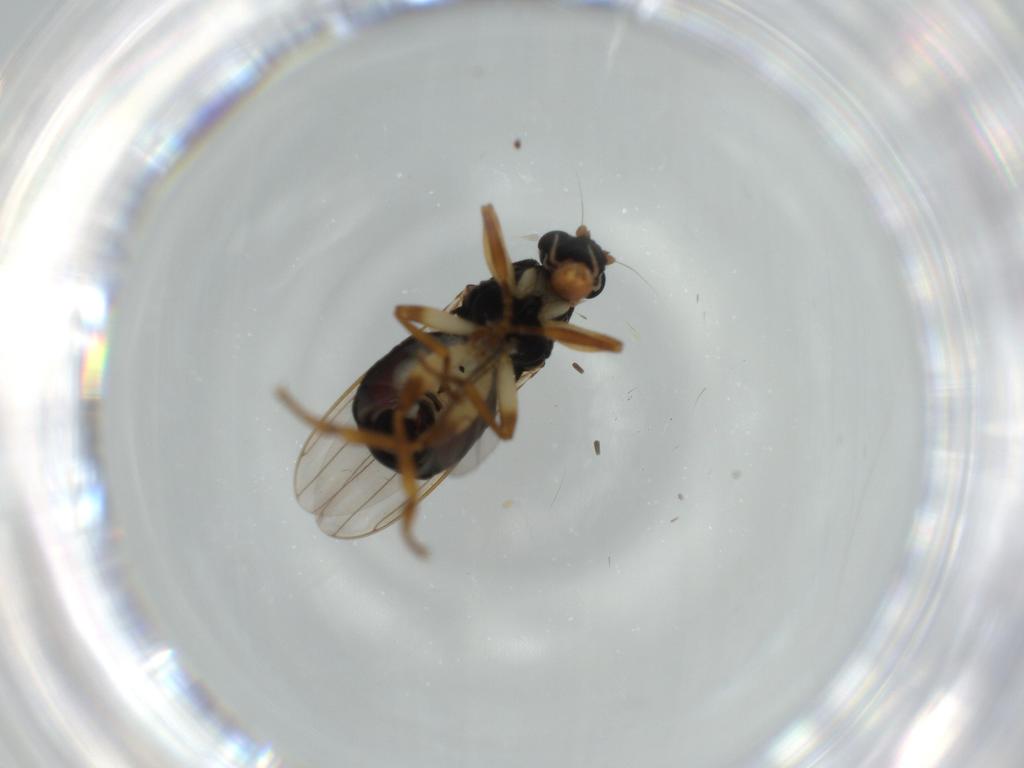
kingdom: Animalia
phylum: Arthropoda
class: Insecta
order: Diptera
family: Sphaeroceridae
